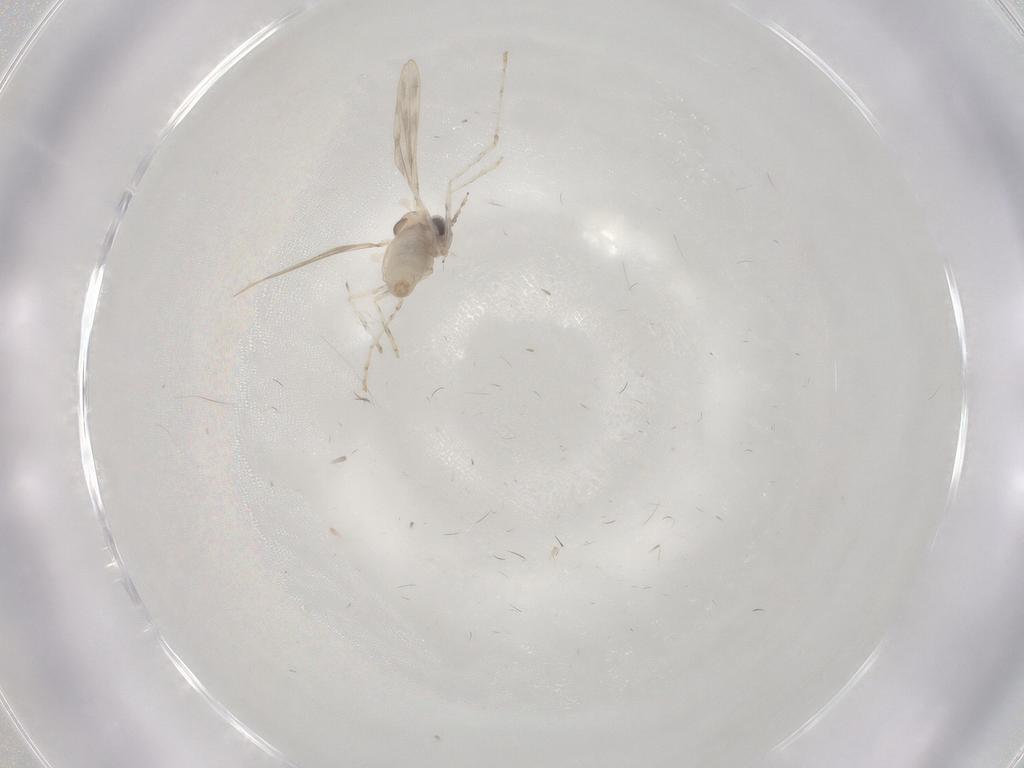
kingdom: Animalia
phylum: Arthropoda
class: Insecta
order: Diptera
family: Cecidomyiidae
